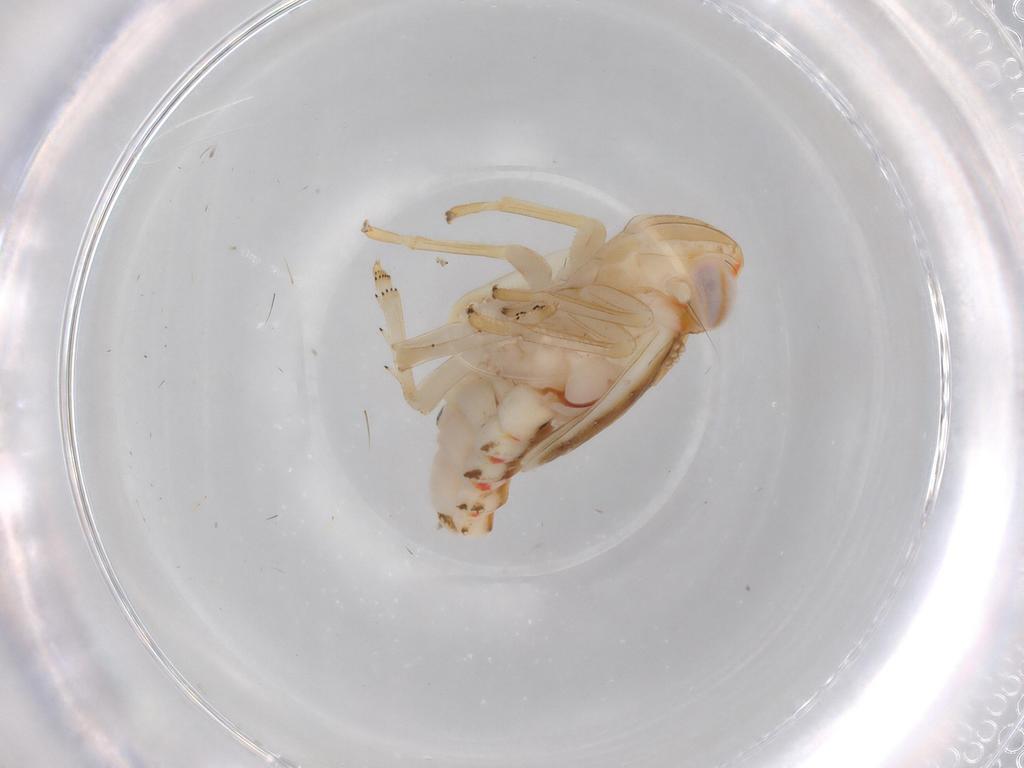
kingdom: Animalia
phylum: Arthropoda
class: Insecta
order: Hemiptera
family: Nogodinidae
